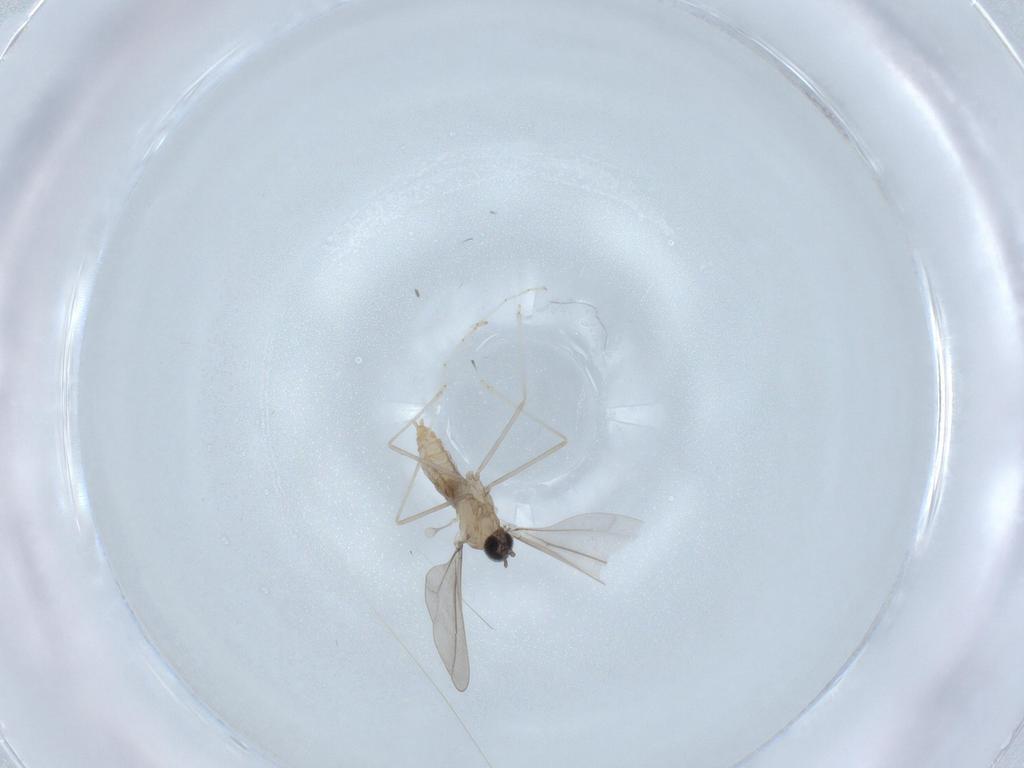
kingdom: Animalia
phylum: Arthropoda
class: Insecta
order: Diptera
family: Cecidomyiidae
